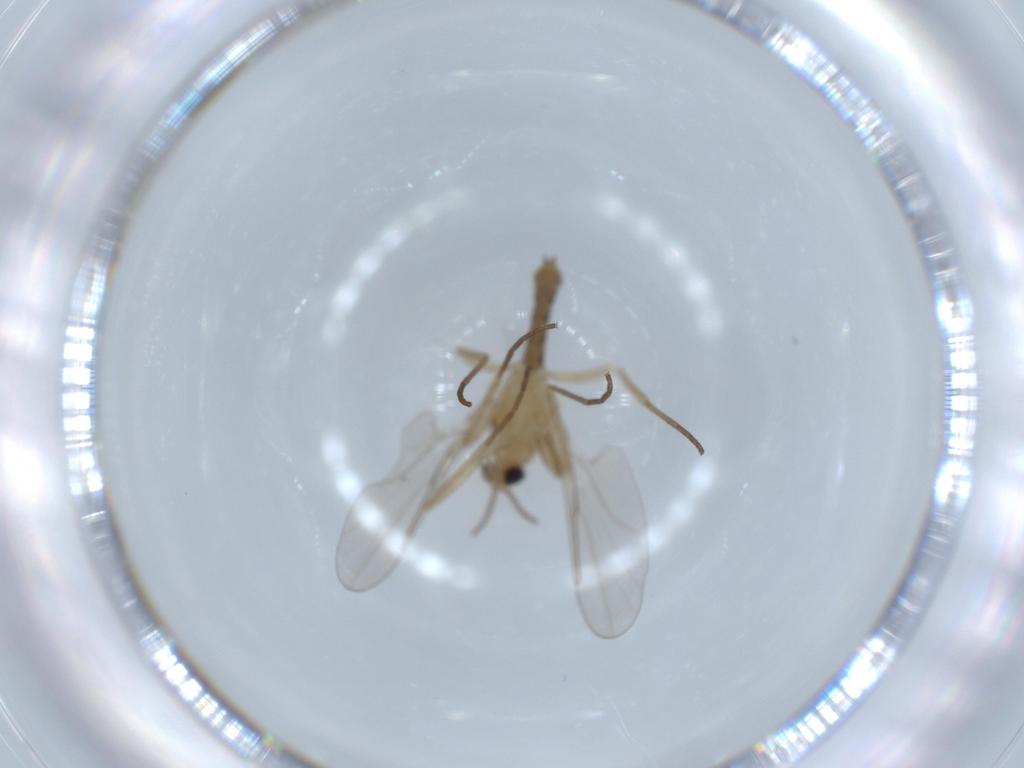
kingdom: Animalia
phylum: Arthropoda
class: Insecta
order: Diptera
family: Cecidomyiidae
